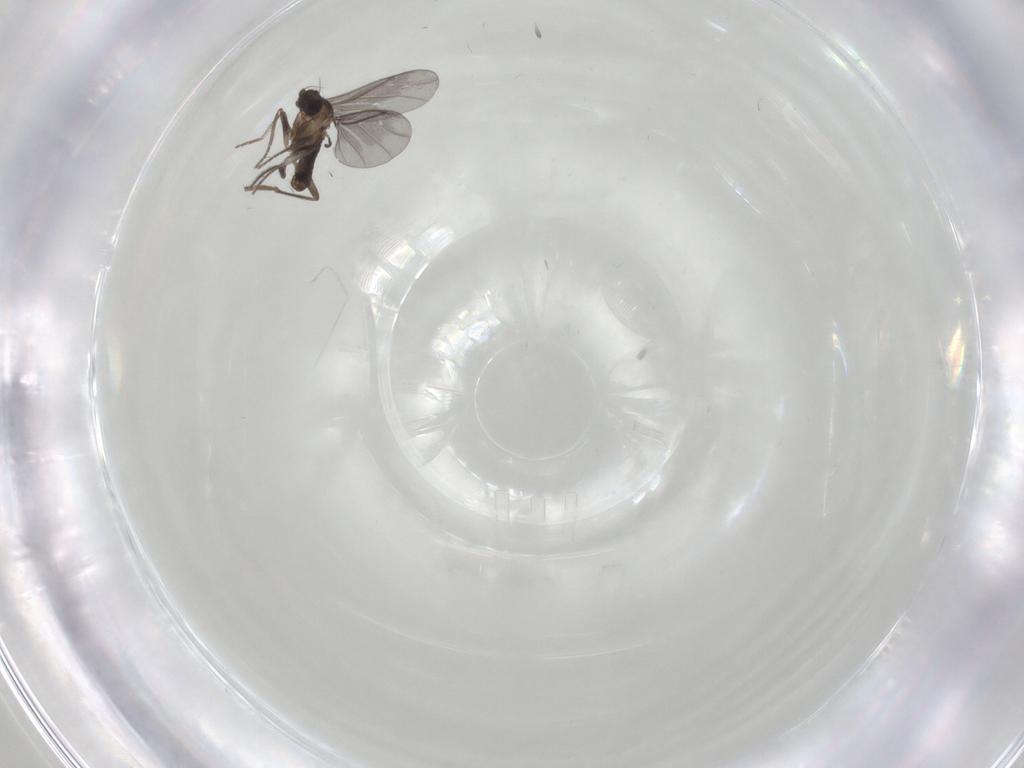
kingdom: Animalia
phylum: Arthropoda
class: Insecta
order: Diptera
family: Phoridae
